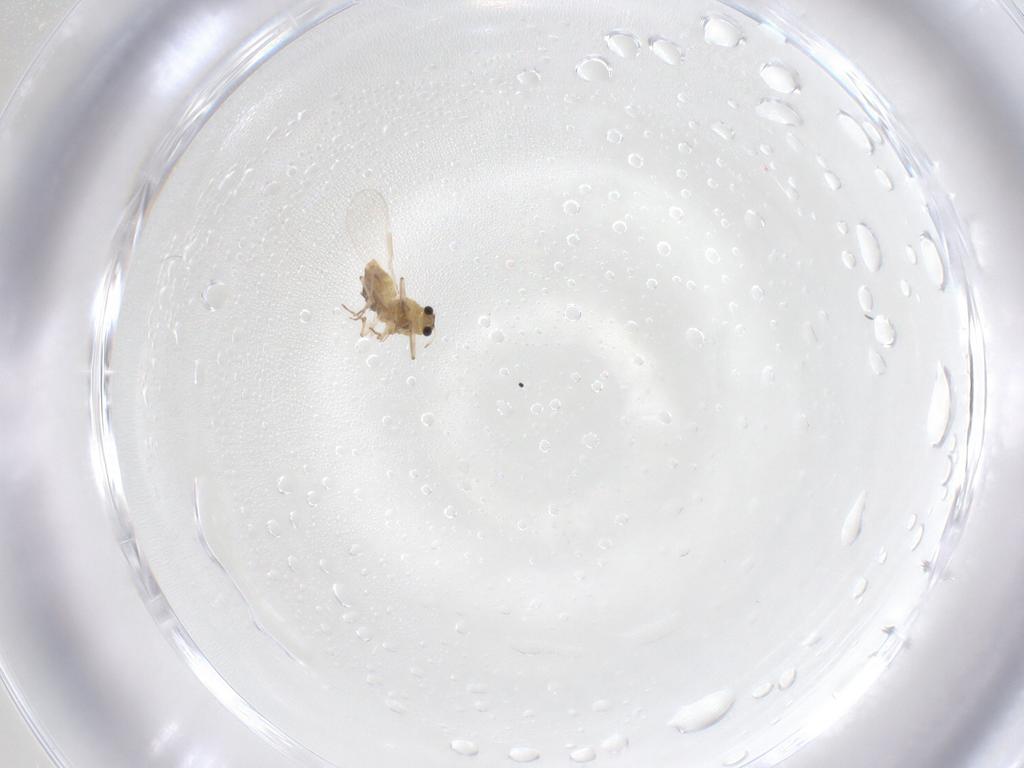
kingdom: Animalia
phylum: Arthropoda
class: Insecta
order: Diptera
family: Chironomidae
